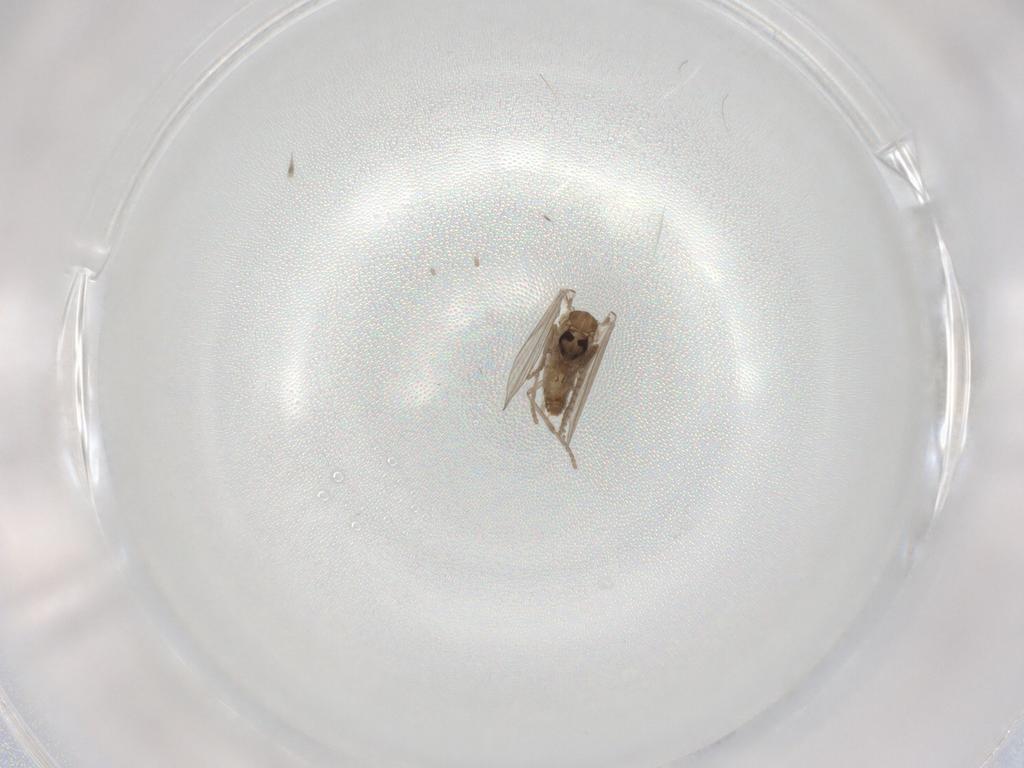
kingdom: Animalia
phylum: Arthropoda
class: Insecta
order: Diptera
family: Psychodidae
